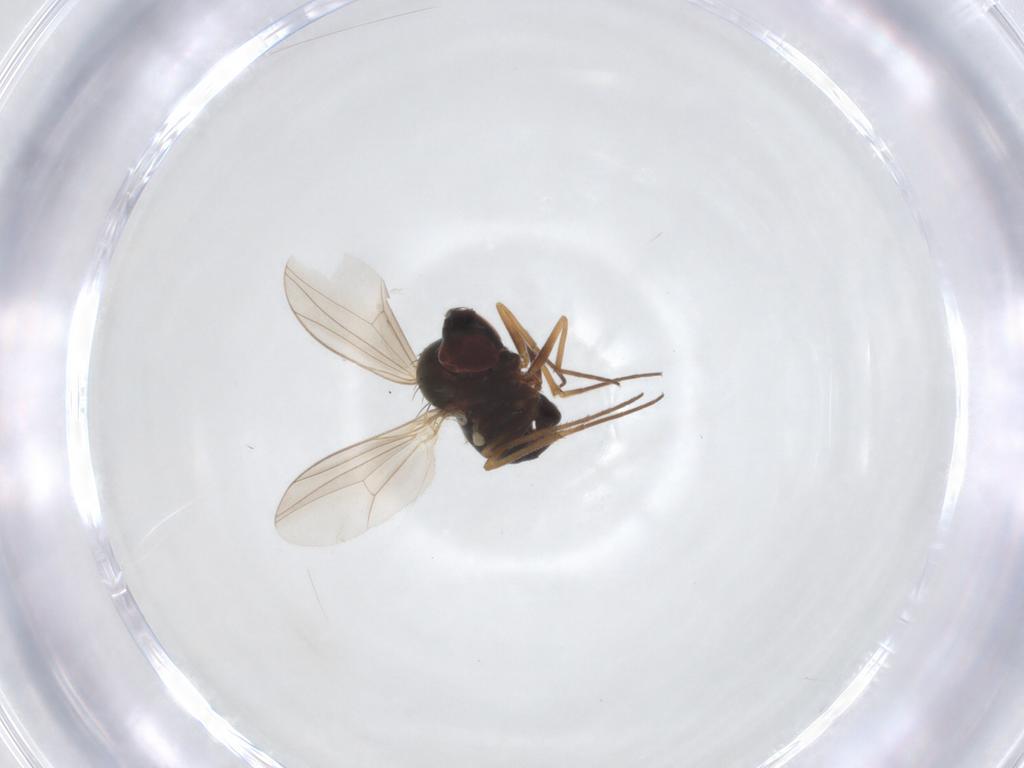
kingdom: Animalia
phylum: Arthropoda
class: Insecta
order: Diptera
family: Dolichopodidae
